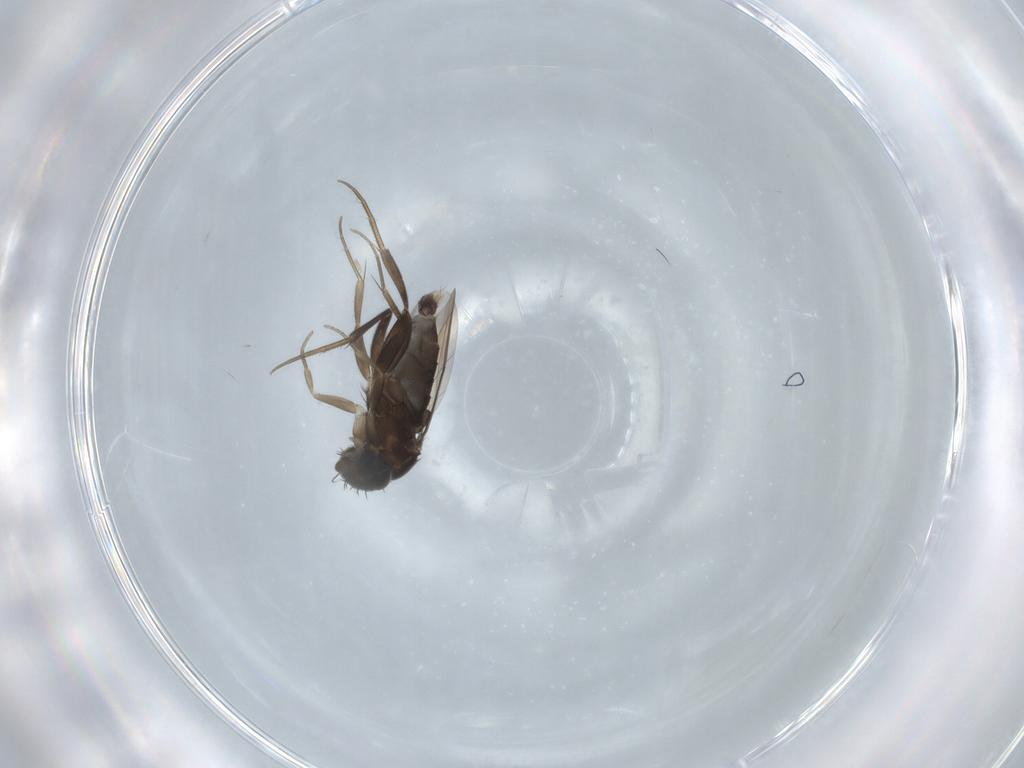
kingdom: Animalia
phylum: Arthropoda
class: Insecta
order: Diptera
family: Phoridae
